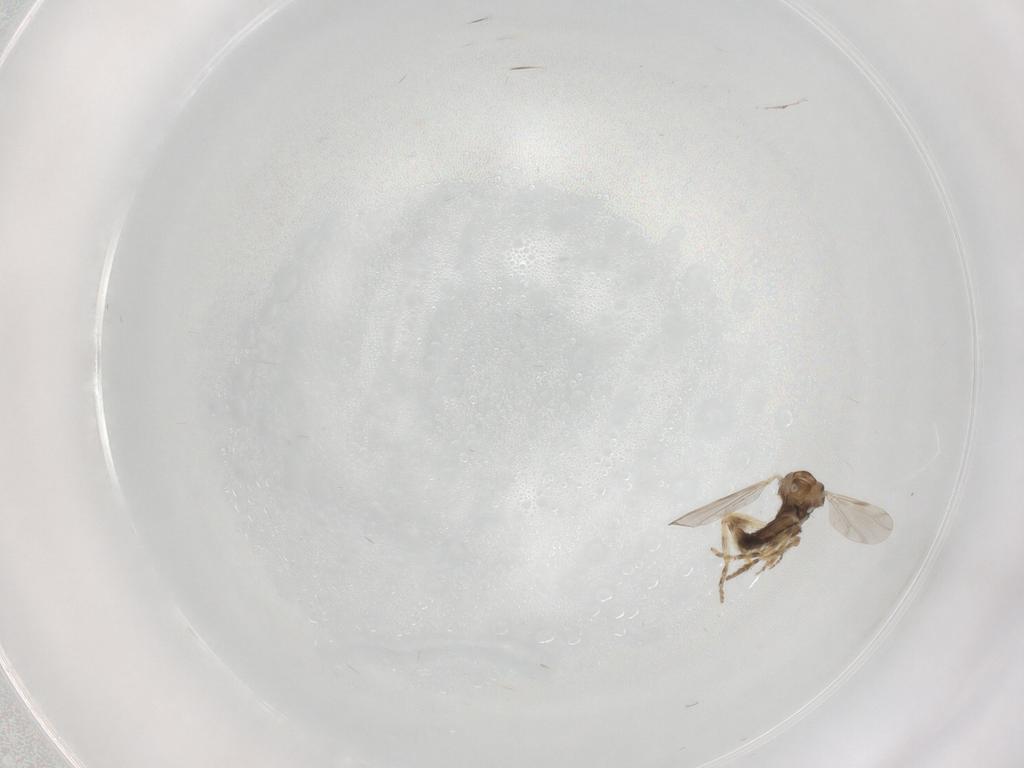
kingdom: Animalia
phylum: Arthropoda
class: Insecta
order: Diptera
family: Ceratopogonidae
